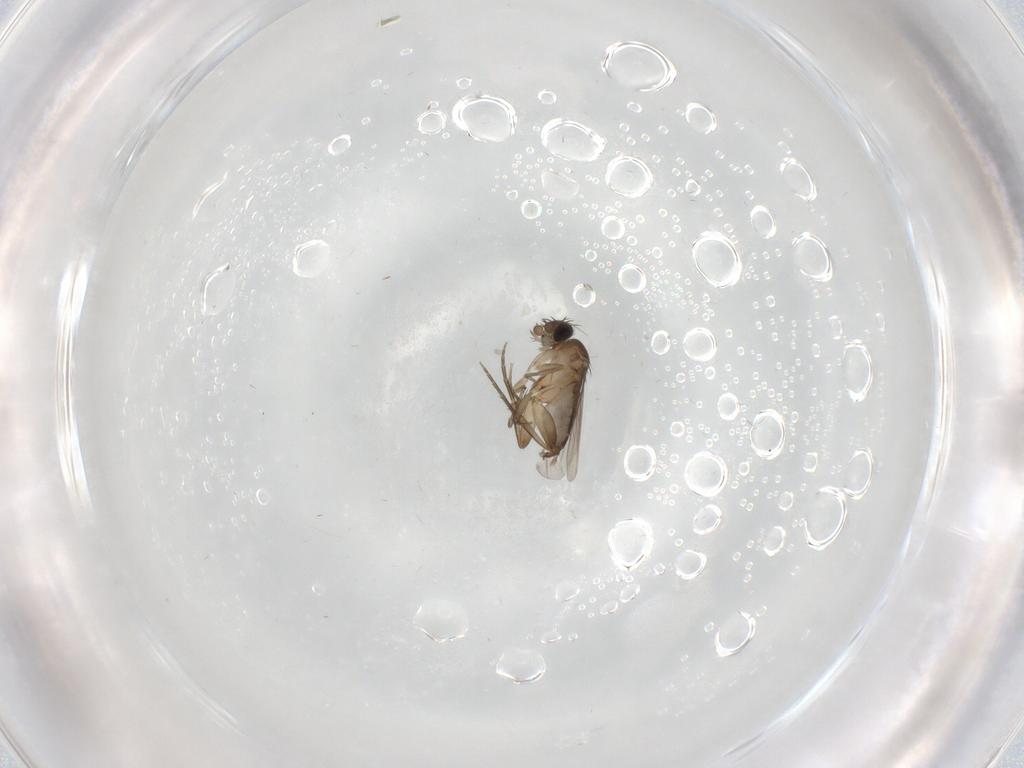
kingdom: Animalia
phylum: Arthropoda
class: Insecta
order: Diptera
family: Phoridae
